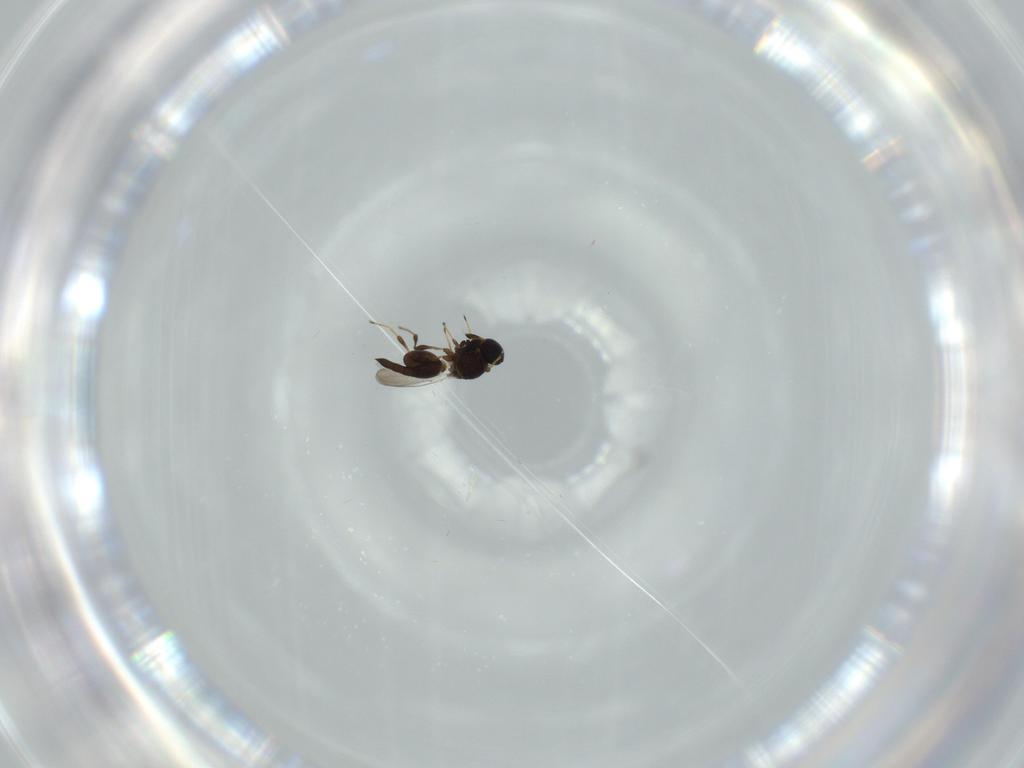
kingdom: Animalia
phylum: Arthropoda
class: Insecta
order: Hymenoptera
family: Platygastridae
